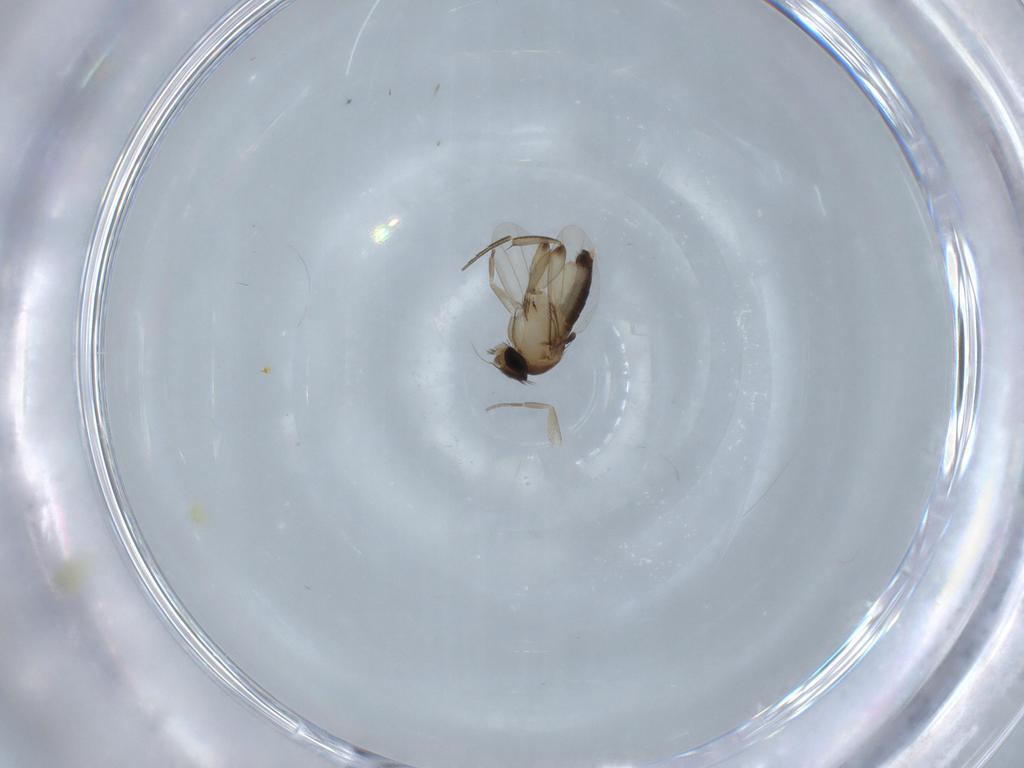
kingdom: Animalia
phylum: Arthropoda
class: Insecta
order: Diptera
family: Phoridae
